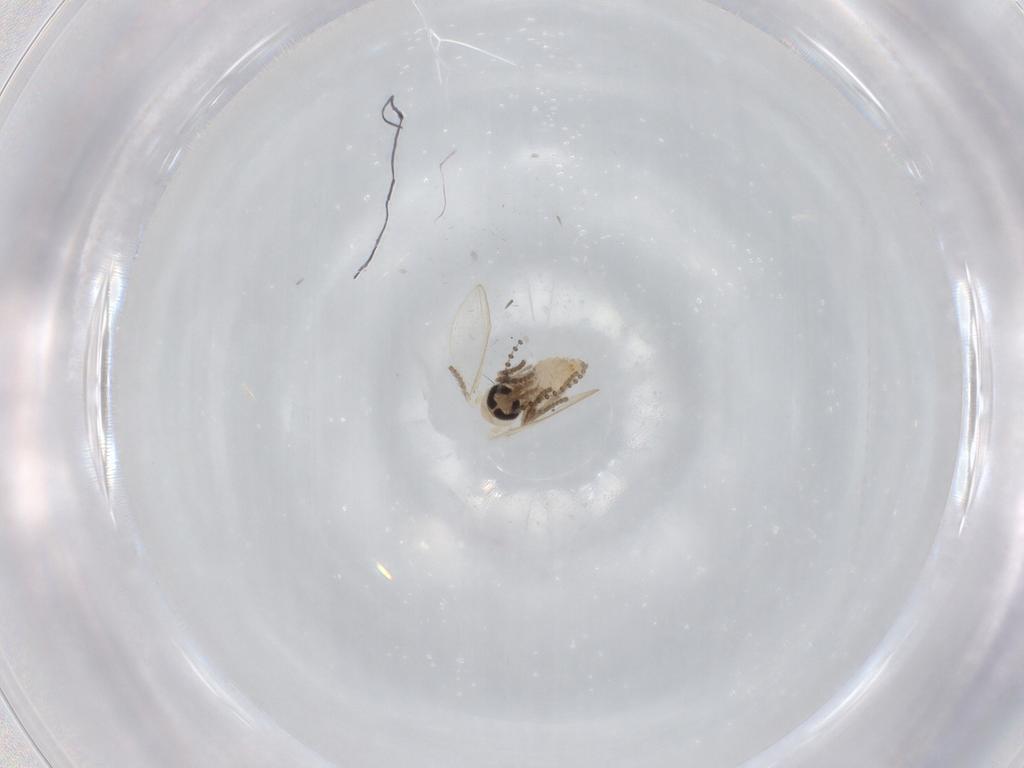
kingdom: Animalia
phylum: Arthropoda
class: Insecta
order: Diptera
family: Psychodidae
